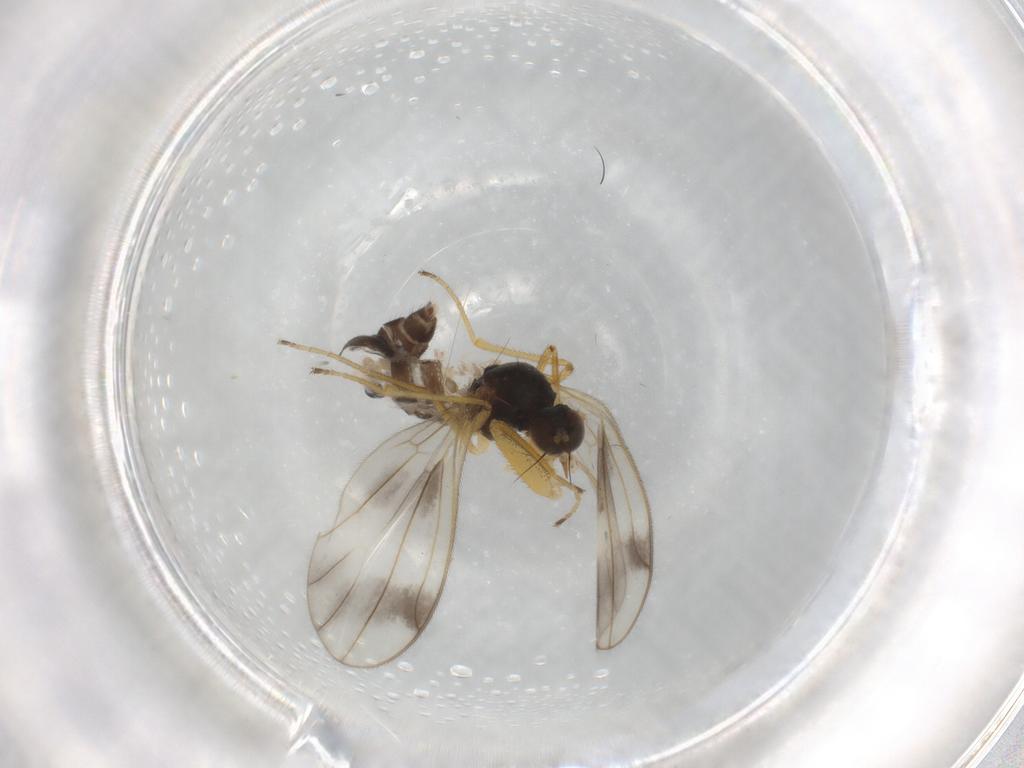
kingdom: Animalia
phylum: Arthropoda
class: Insecta
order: Diptera
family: Empididae
